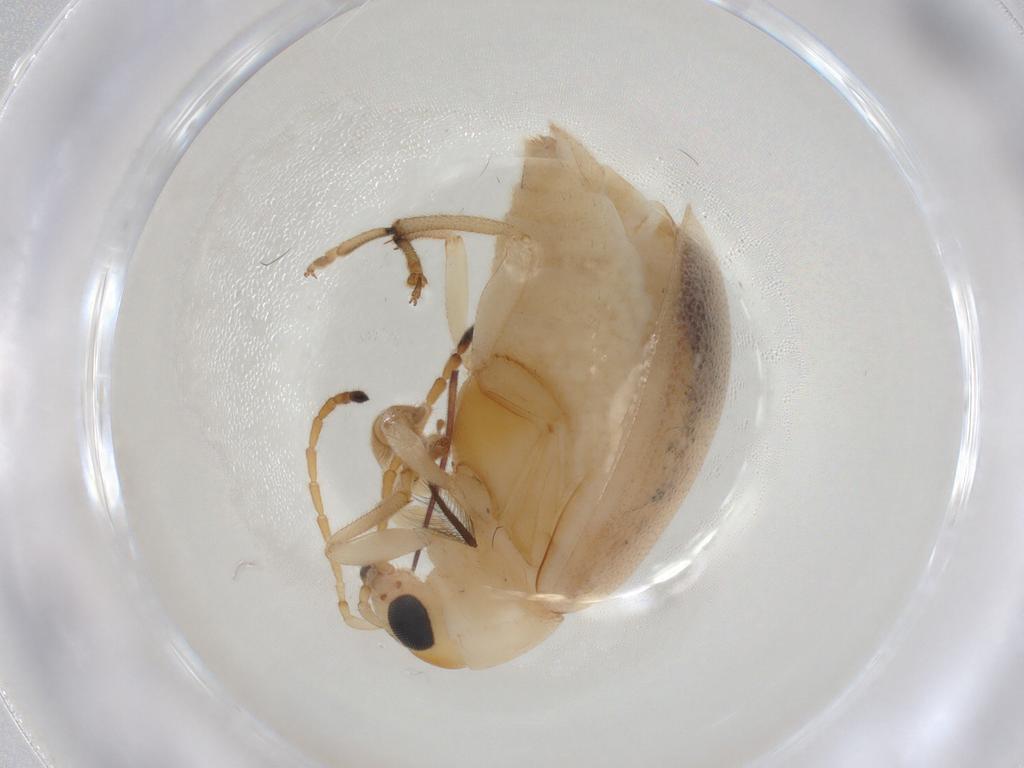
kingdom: Animalia
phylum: Arthropoda
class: Insecta
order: Coleoptera
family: Chrysomelidae
